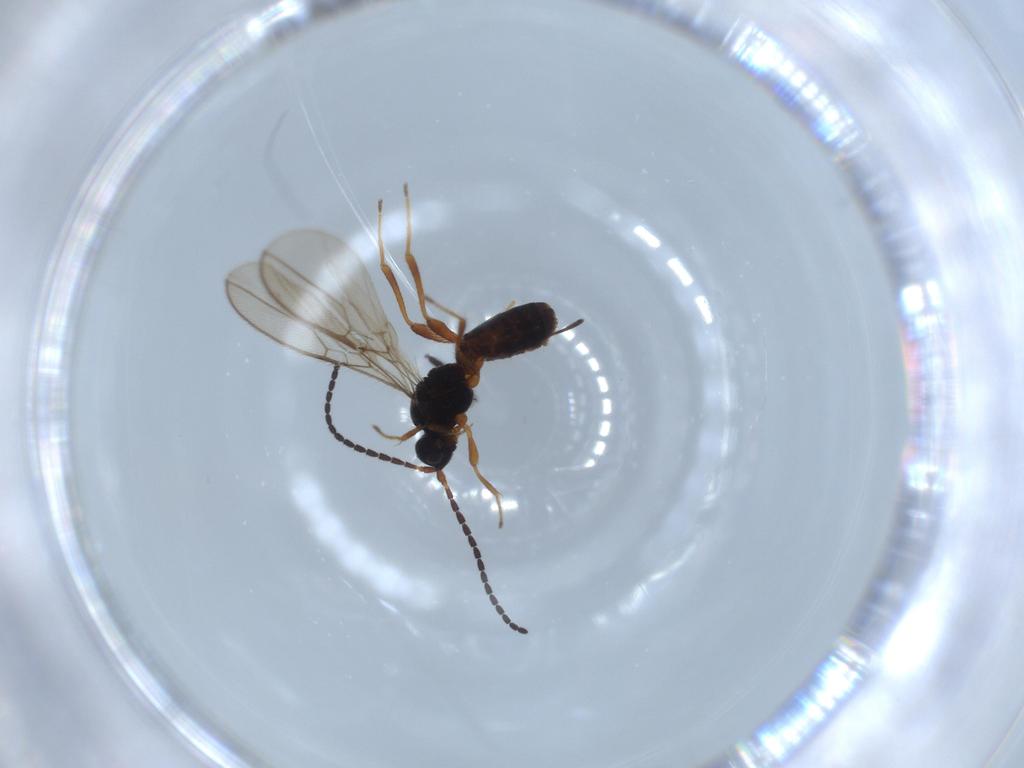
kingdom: Animalia
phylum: Arthropoda
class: Insecta
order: Hymenoptera
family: Braconidae
